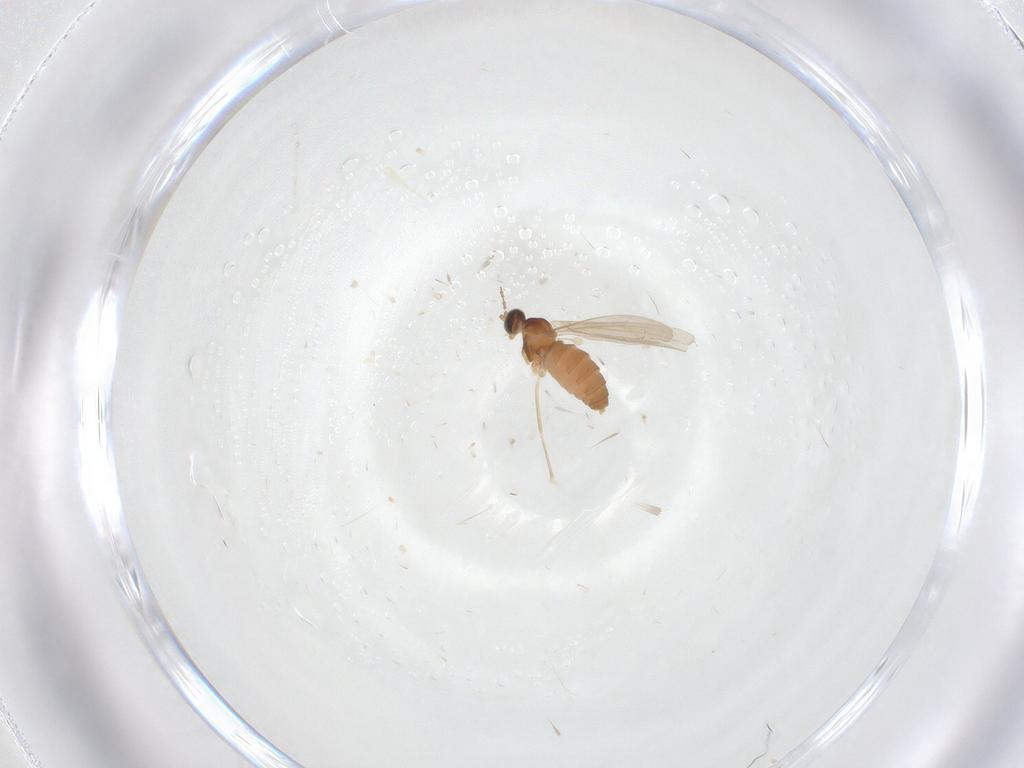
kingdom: Animalia
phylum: Arthropoda
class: Insecta
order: Diptera
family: Cecidomyiidae
